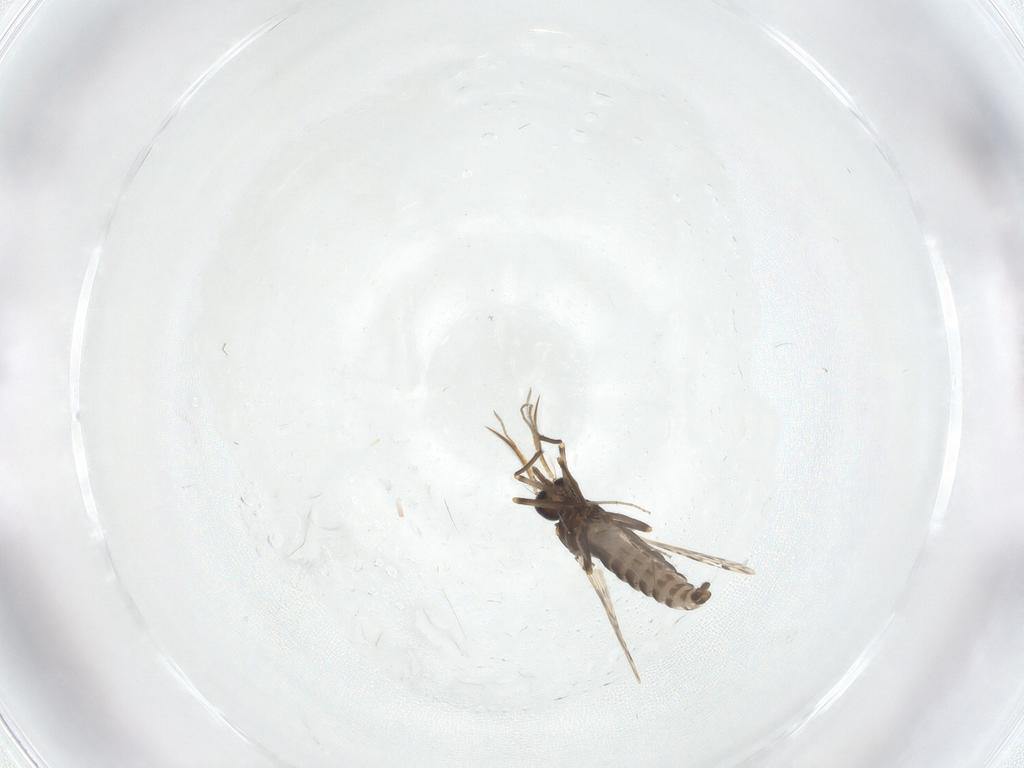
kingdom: Animalia
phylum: Arthropoda
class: Insecta
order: Diptera
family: Ceratopogonidae
